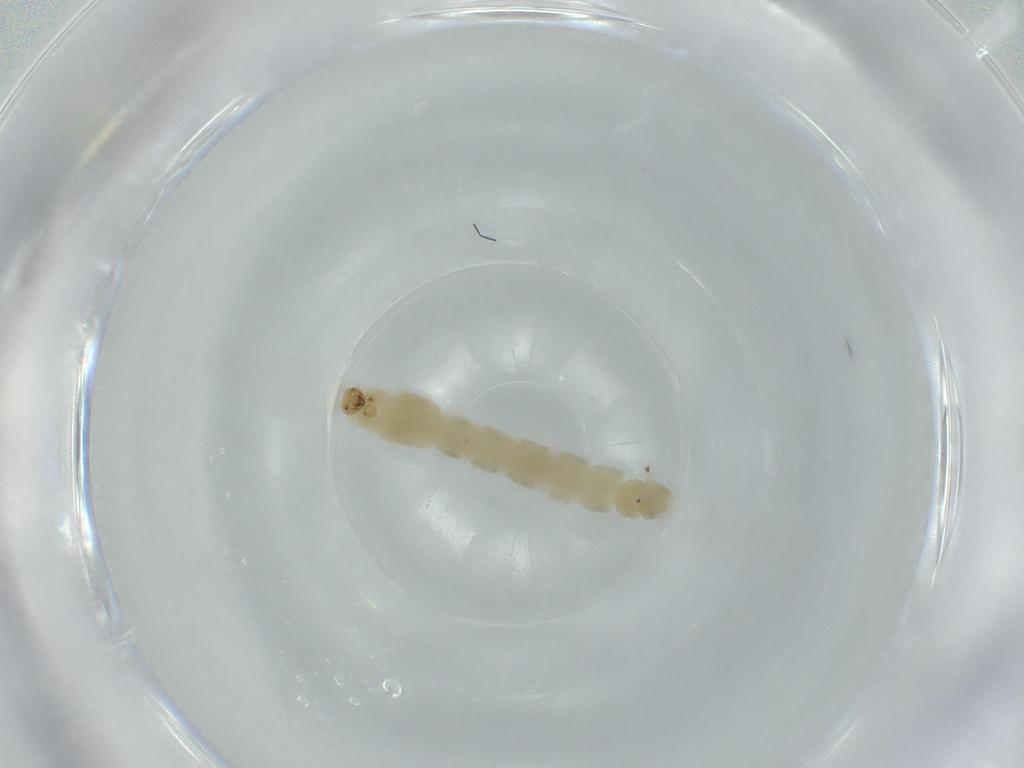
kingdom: Animalia
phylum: Arthropoda
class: Insecta
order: Diptera
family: Chironomidae
